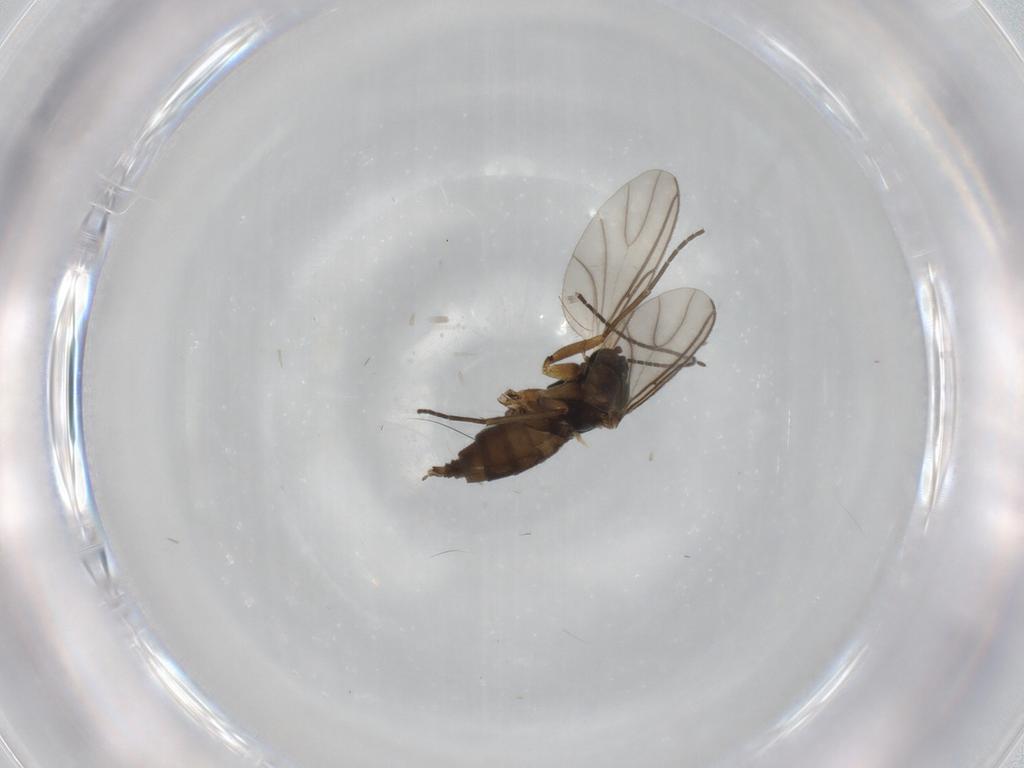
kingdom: Animalia
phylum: Arthropoda
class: Insecta
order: Diptera
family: Sciaridae
